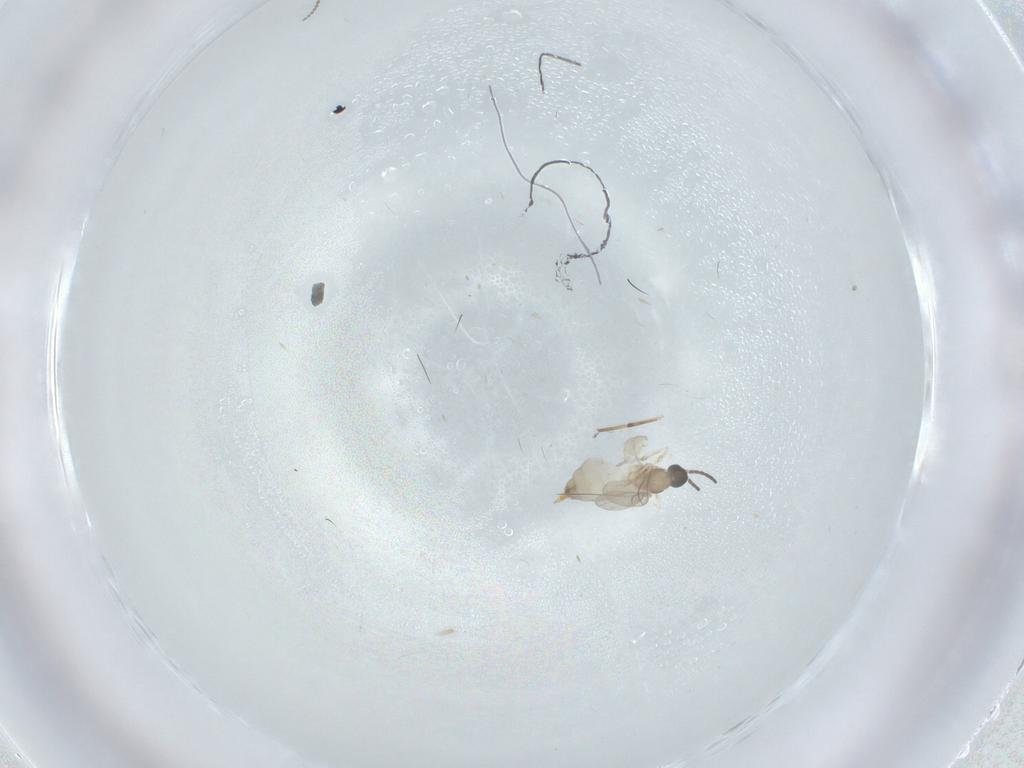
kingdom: Animalia
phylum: Arthropoda
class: Insecta
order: Diptera
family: Cecidomyiidae
